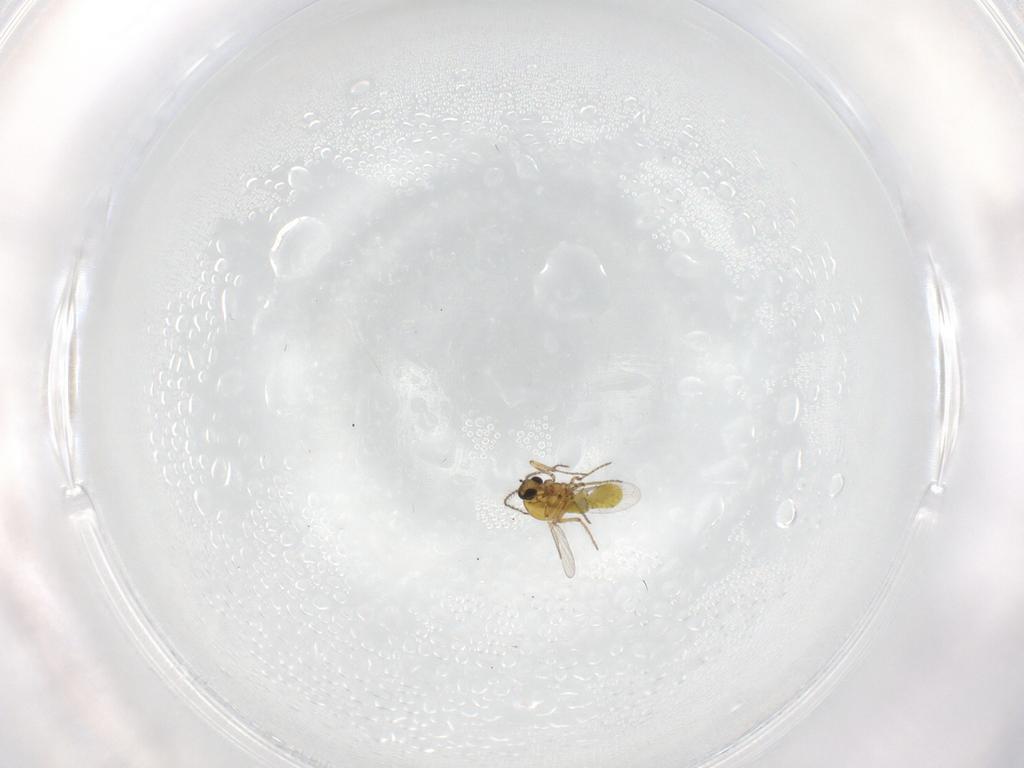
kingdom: Animalia
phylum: Arthropoda
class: Insecta
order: Diptera
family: Ceratopogonidae
